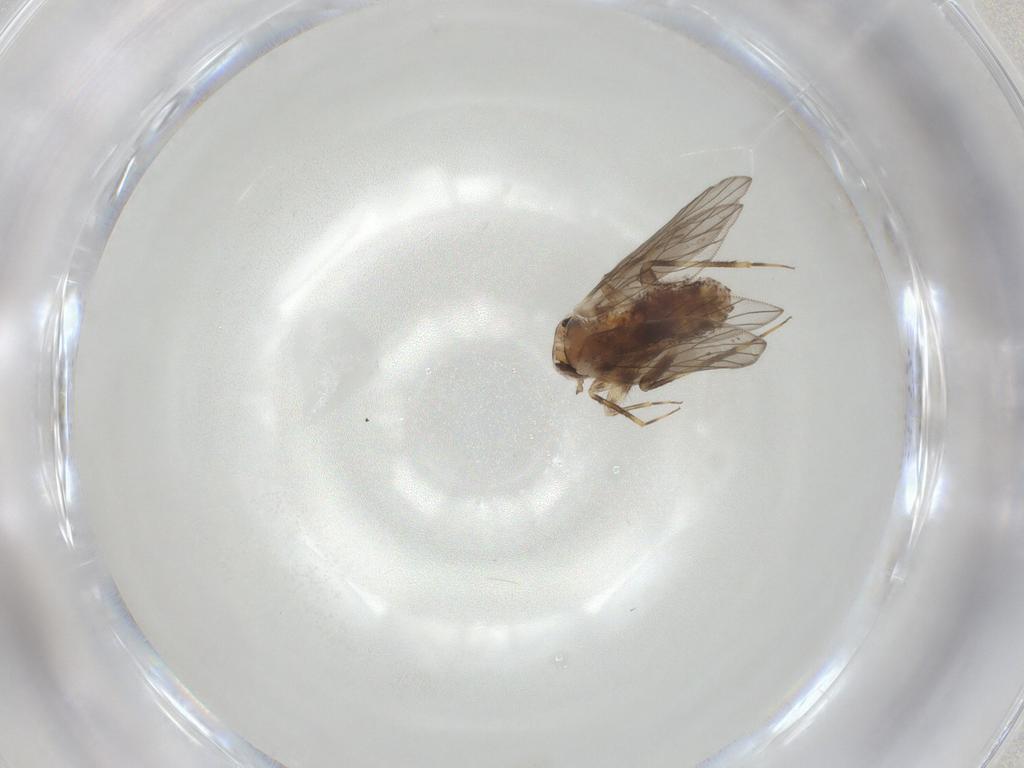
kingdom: Animalia
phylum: Arthropoda
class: Insecta
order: Psocodea
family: Lepidopsocidae
